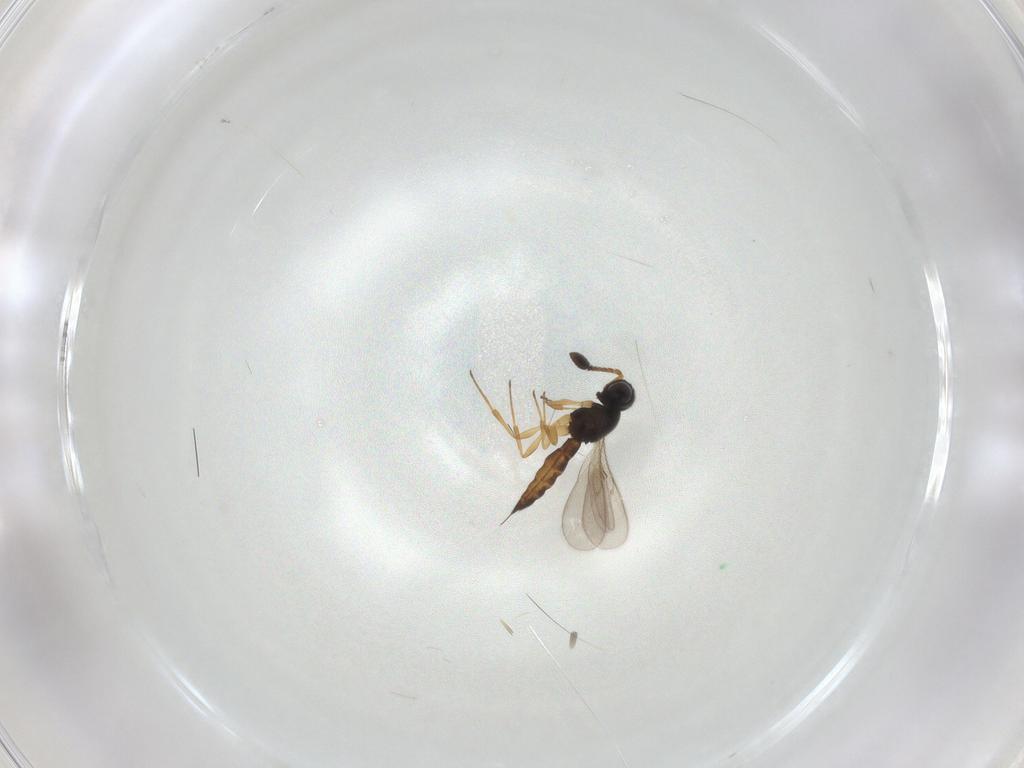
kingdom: Animalia
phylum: Arthropoda
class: Insecta
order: Hymenoptera
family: Scelionidae
